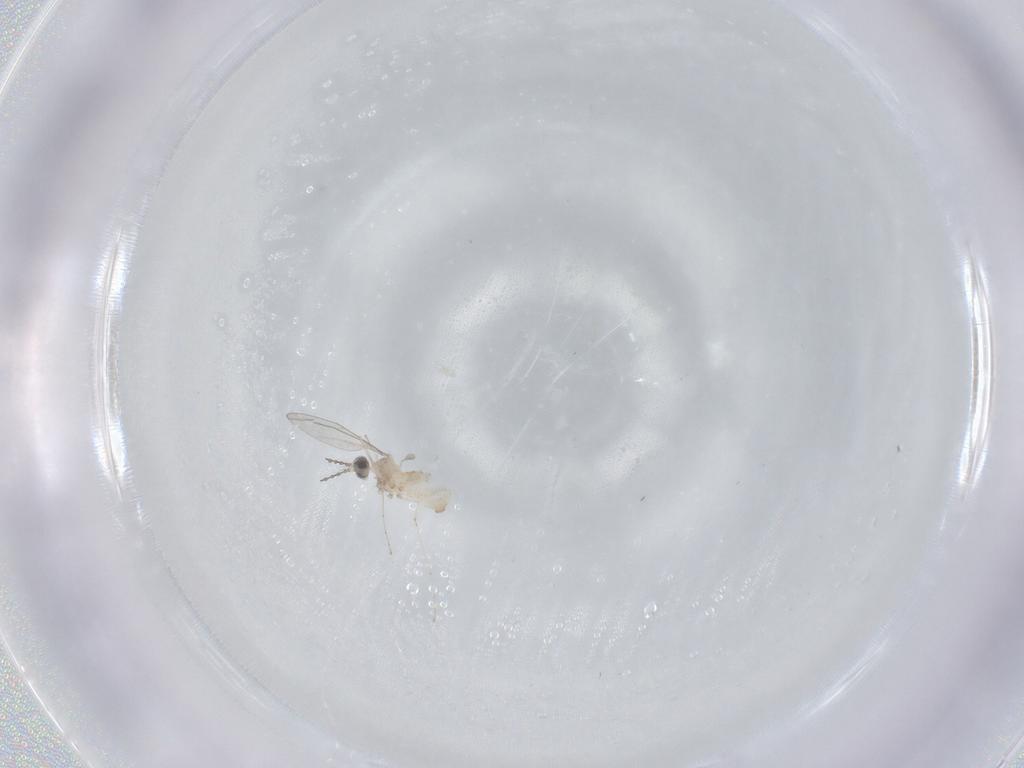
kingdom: Animalia
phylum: Arthropoda
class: Insecta
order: Diptera
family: Cecidomyiidae
